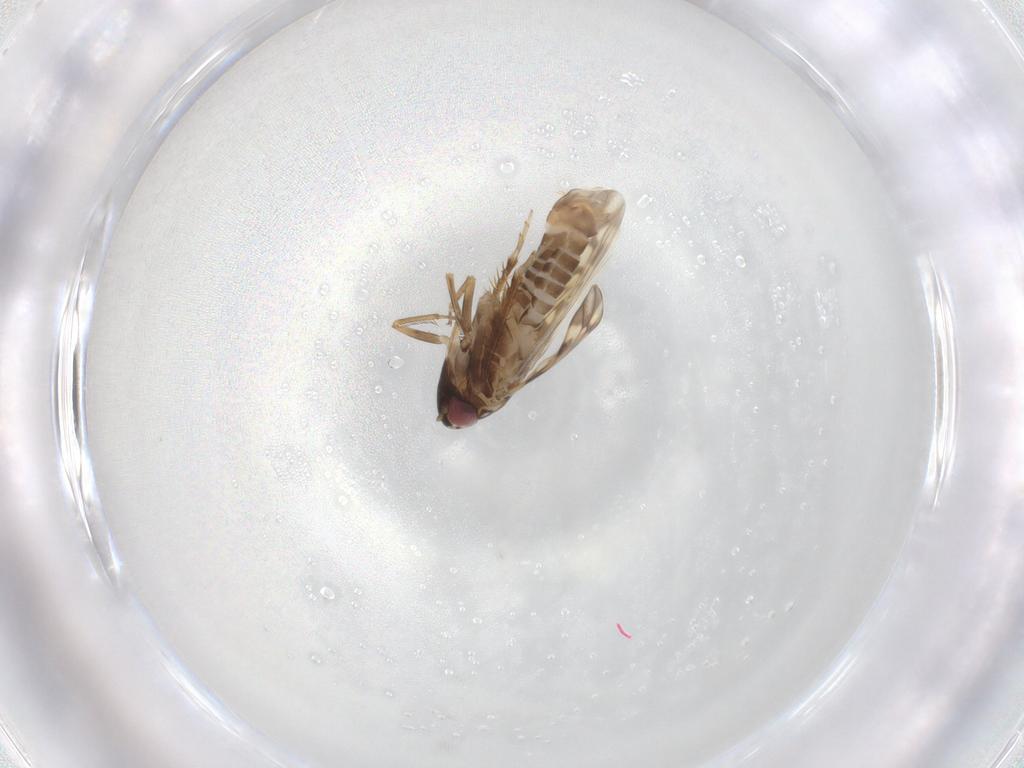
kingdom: Animalia
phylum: Arthropoda
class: Insecta
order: Hemiptera
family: Cicadellidae
